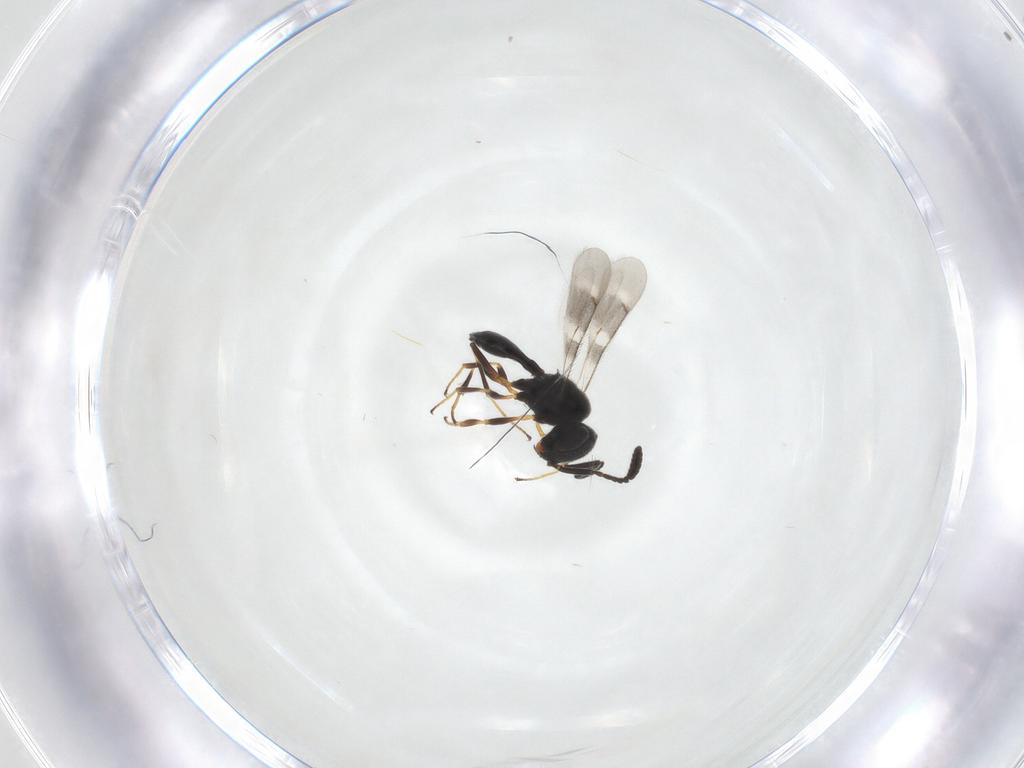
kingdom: Animalia
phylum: Arthropoda
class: Insecta
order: Hymenoptera
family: Scelionidae
